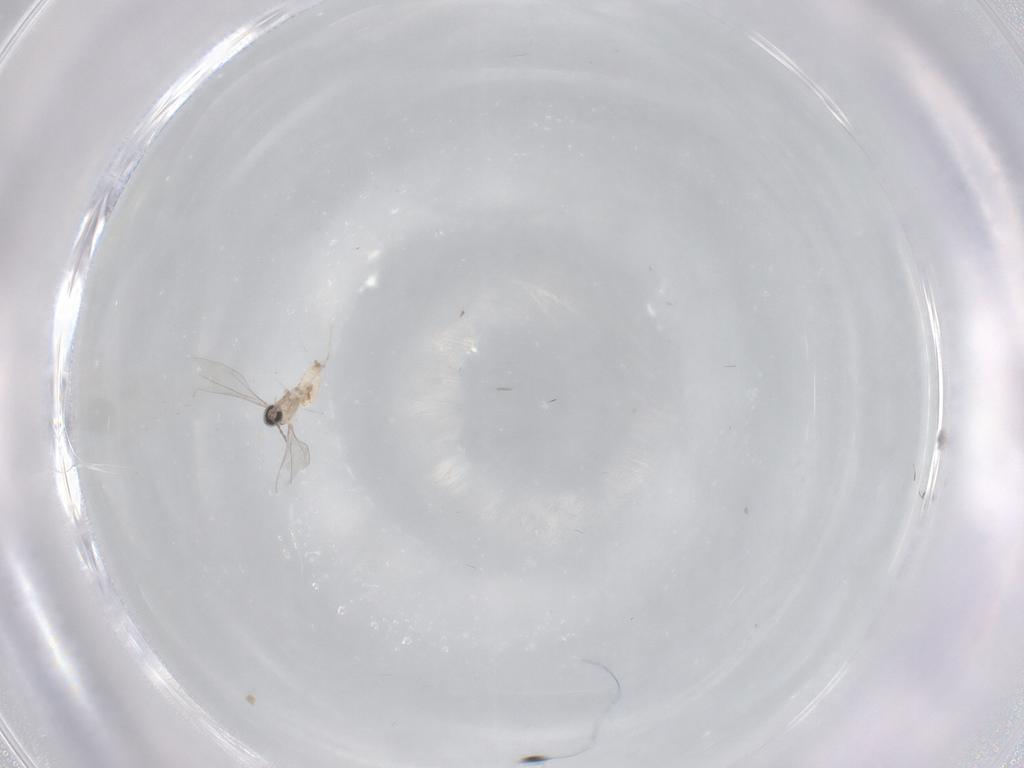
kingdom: Animalia
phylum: Arthropoda
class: Insecta
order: Diptera
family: Cecidomyiidae
